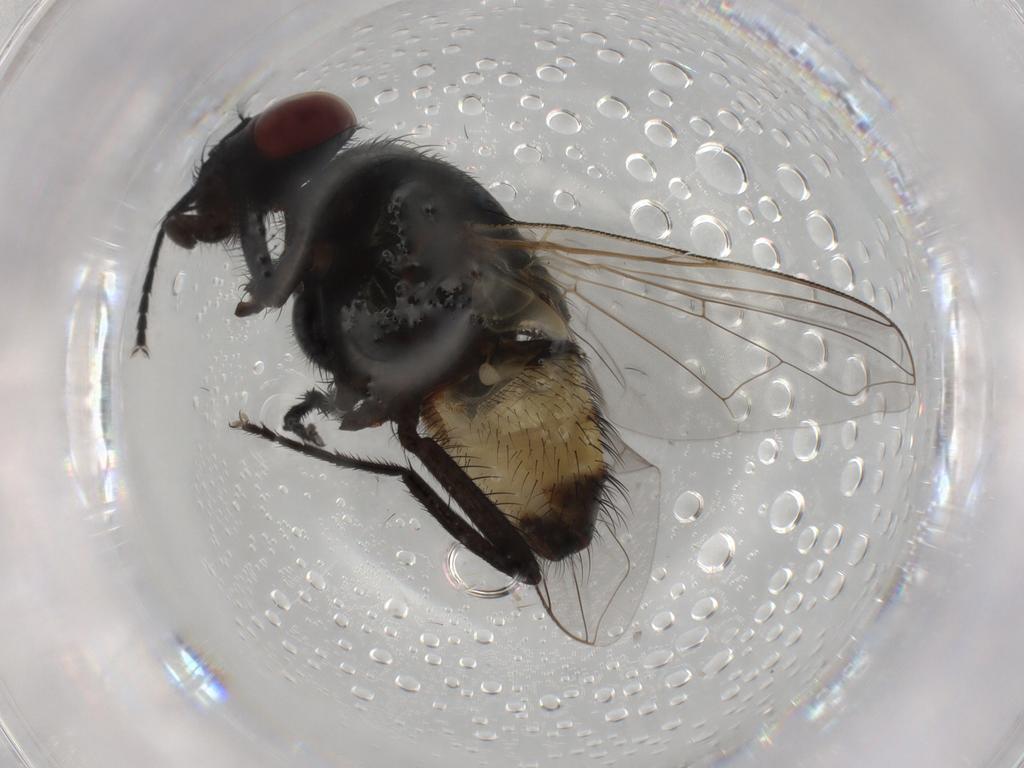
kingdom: Animalia
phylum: Arthropoda
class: Insecta
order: Diptera
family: Phoridae
